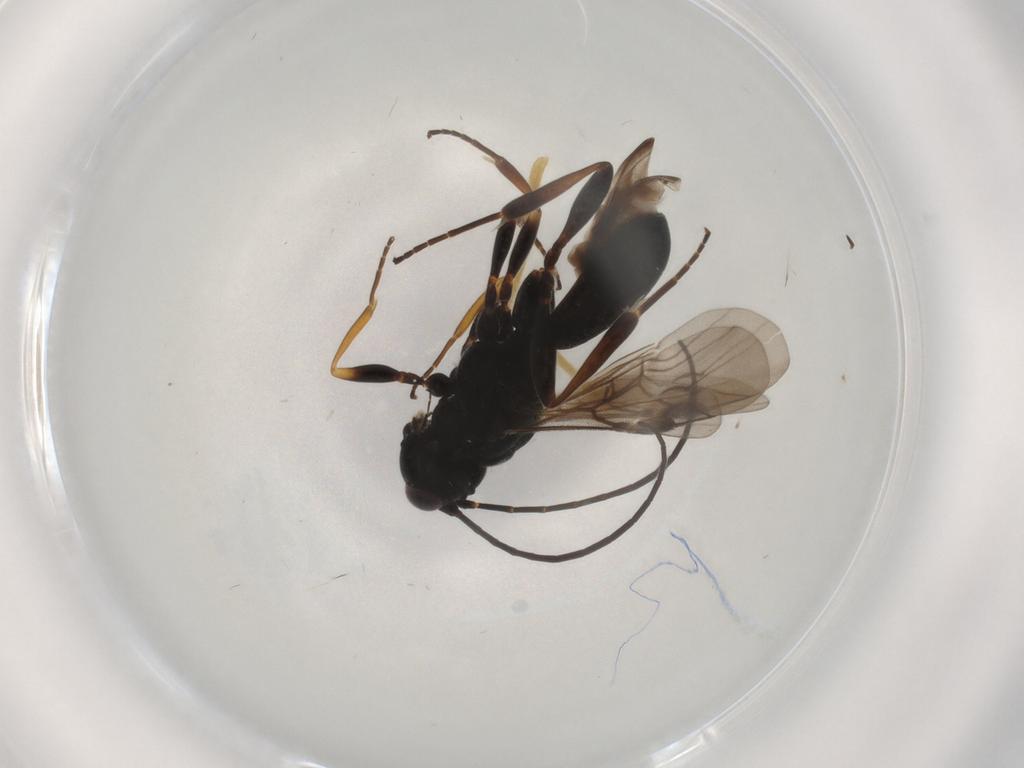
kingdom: Animalia
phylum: Arthropoda
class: Insecta
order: Hymenoptera
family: Braconidae
